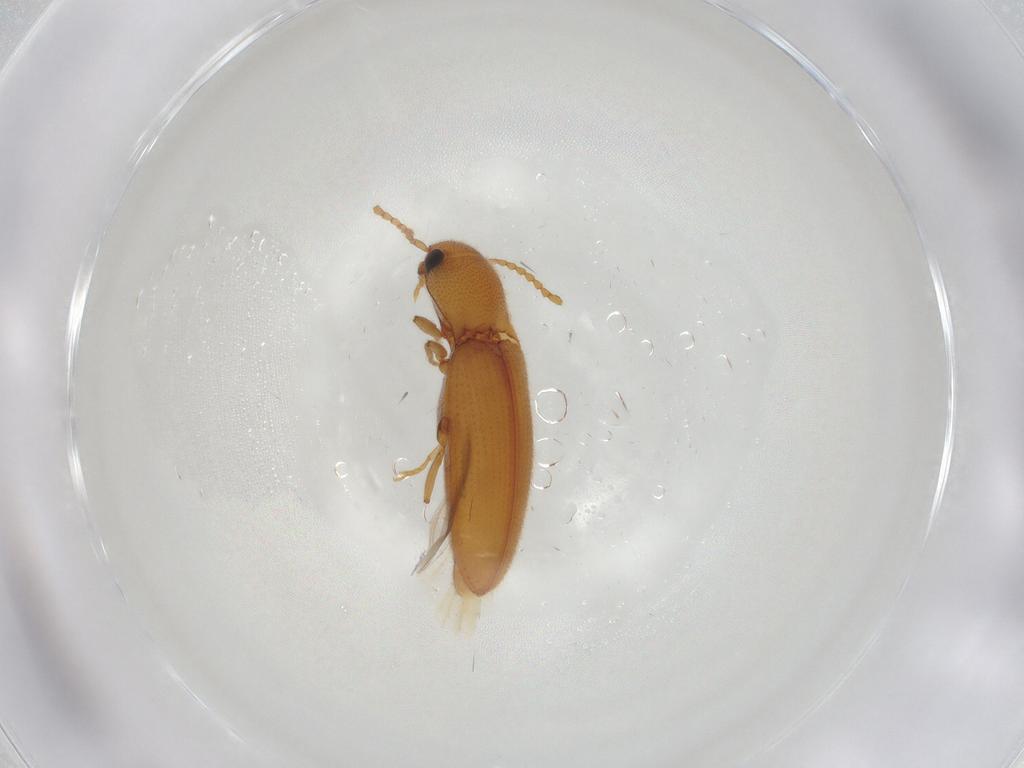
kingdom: Animalia
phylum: Arthropoda
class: Insecta
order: Coleoptera
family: Elateridae
